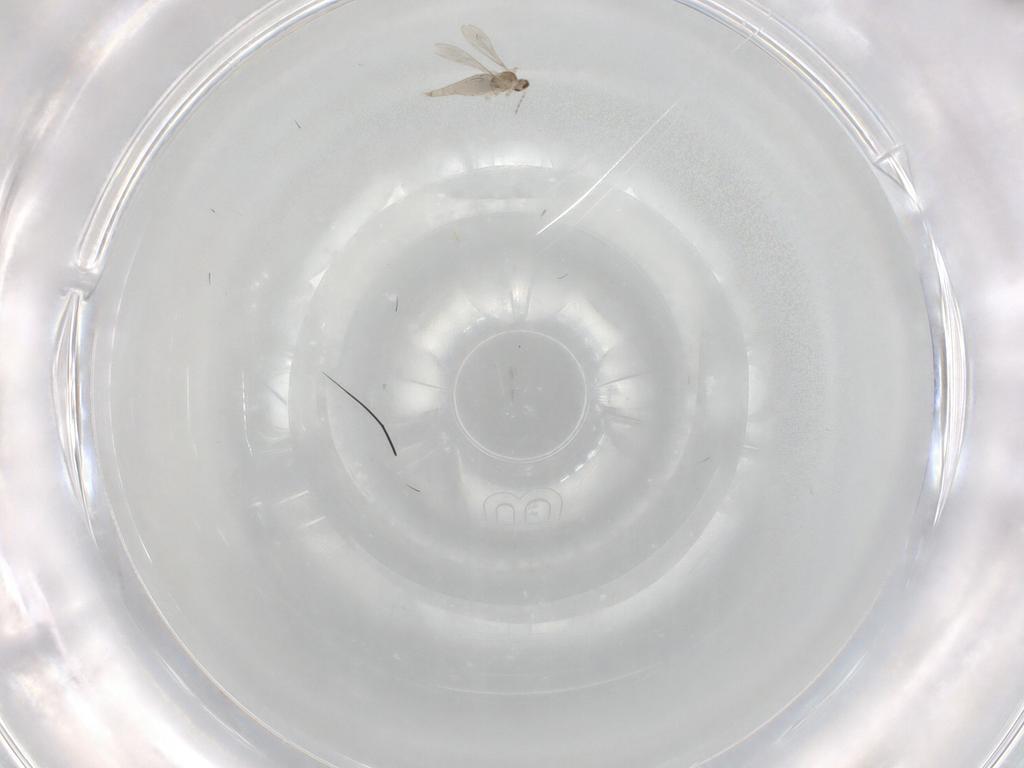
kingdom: Animalia
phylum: Arthropoda
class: Insecta
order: Diptera
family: Cecidomyiidae
